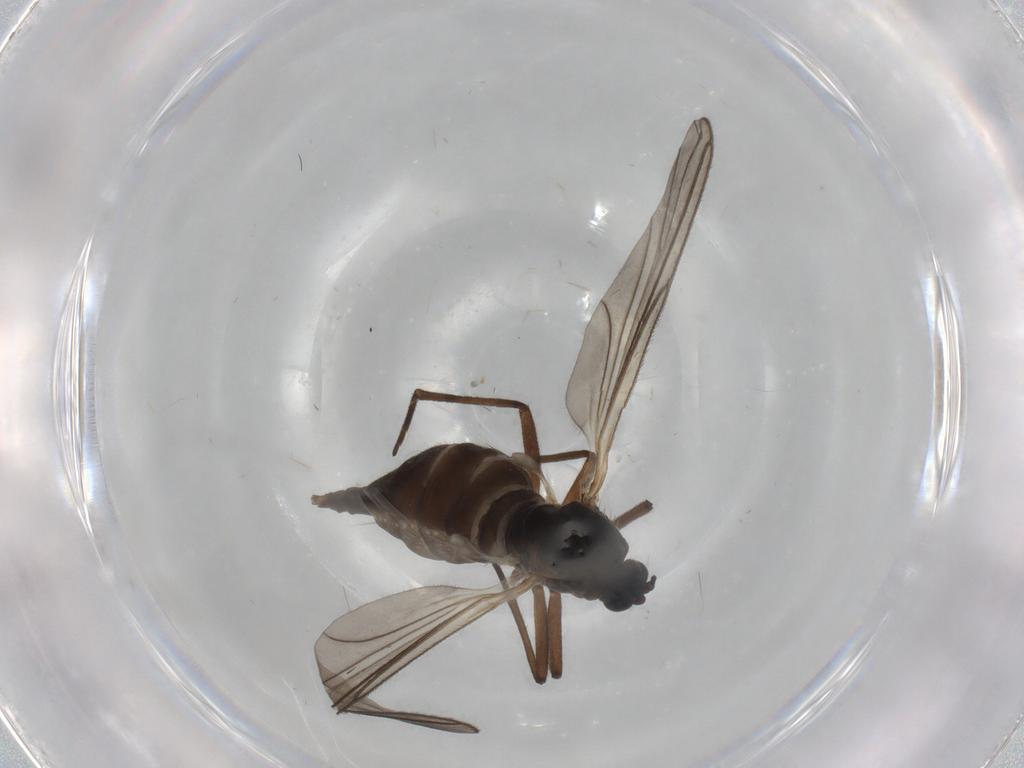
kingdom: Animalia
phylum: Arthropoda
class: Insecta
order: Diptera
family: Sciaridae
